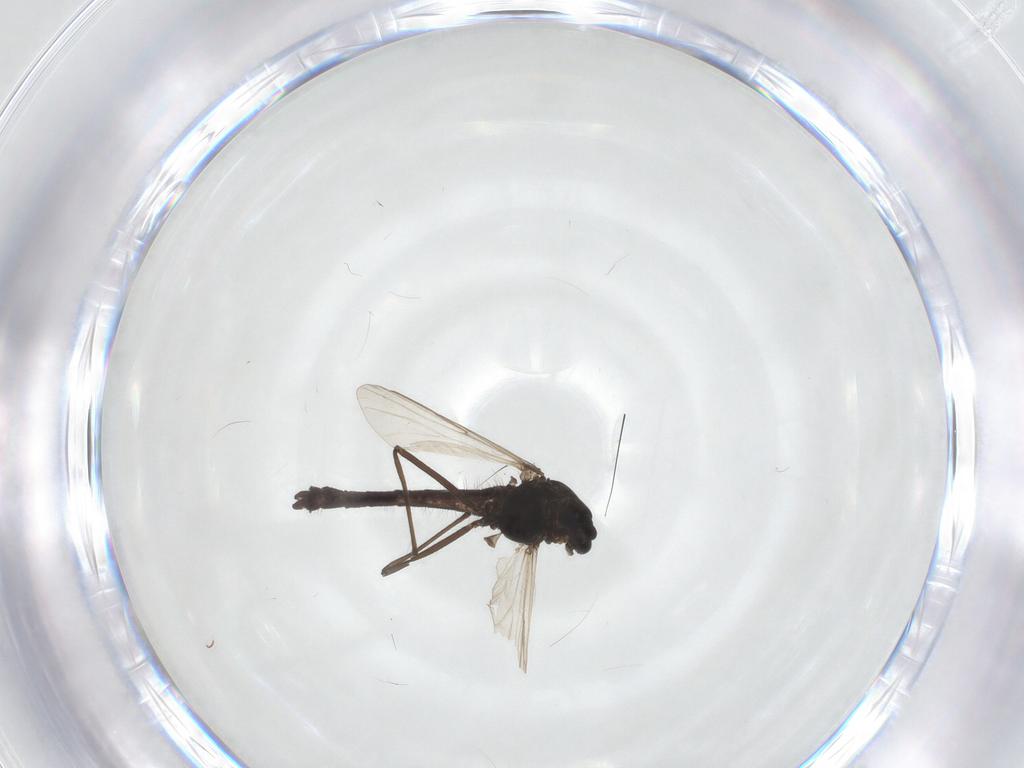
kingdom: Animalia
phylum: Arthropoda
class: Insecta
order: Diptera
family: Chironomidae
